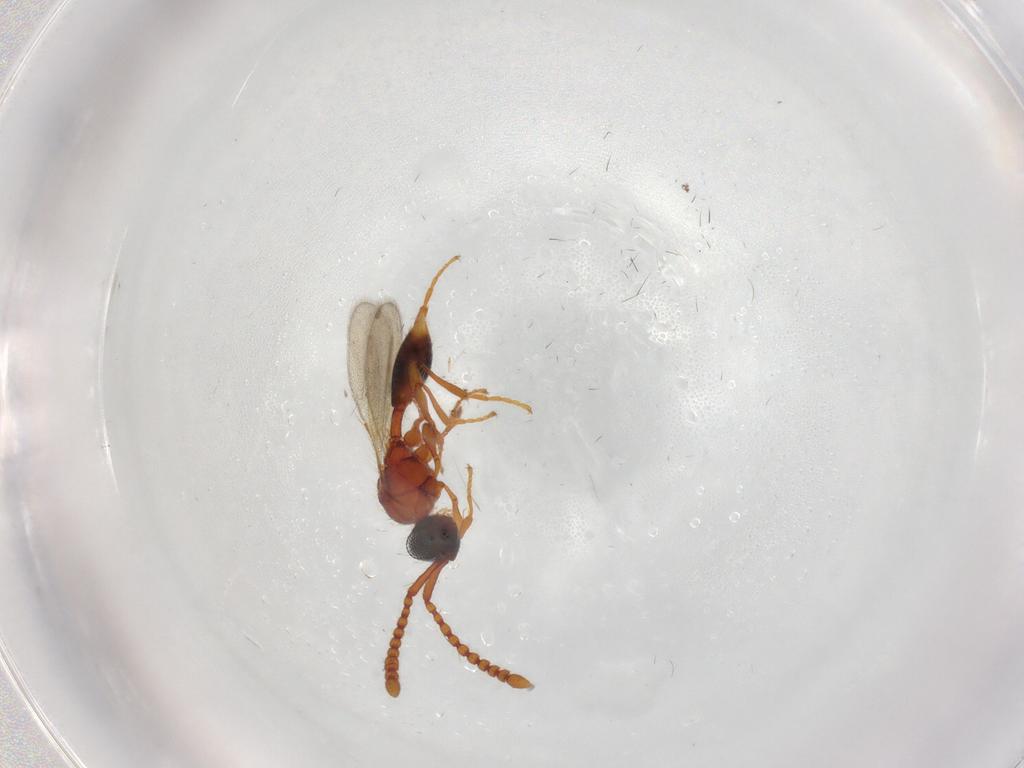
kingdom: Animalia
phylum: Arthropoda
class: Insecta
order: Hymenoptera
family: Diapriidae
